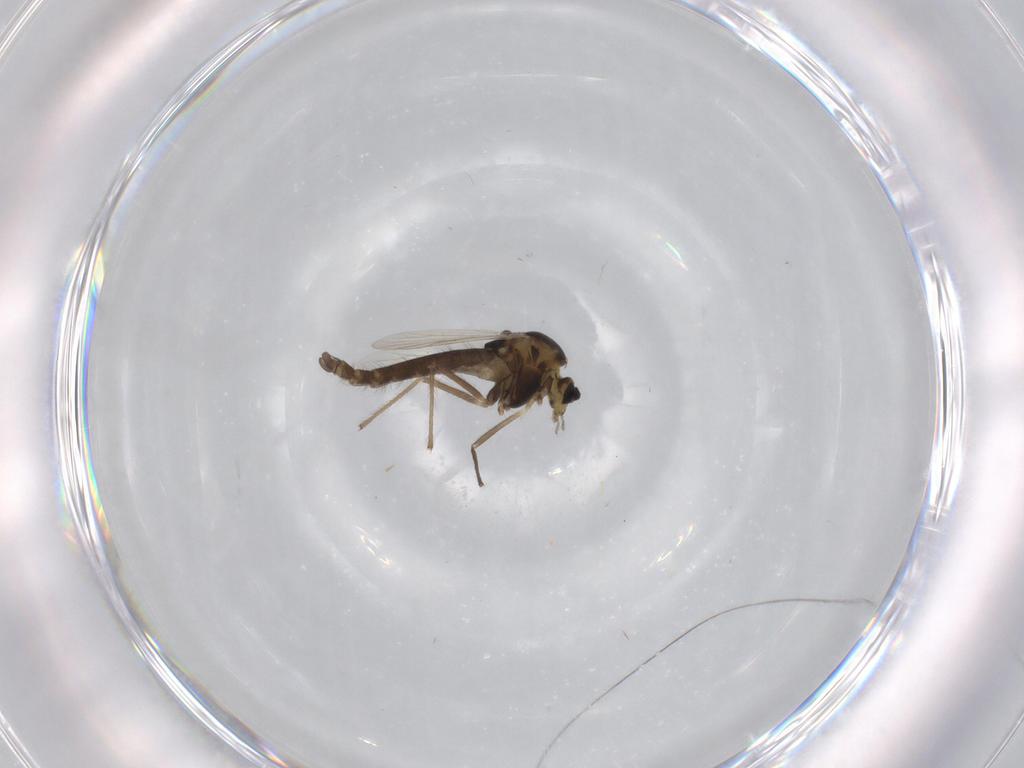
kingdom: Animalia
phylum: Arthropoda
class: Insecta
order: Diptera
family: Chironomidae
